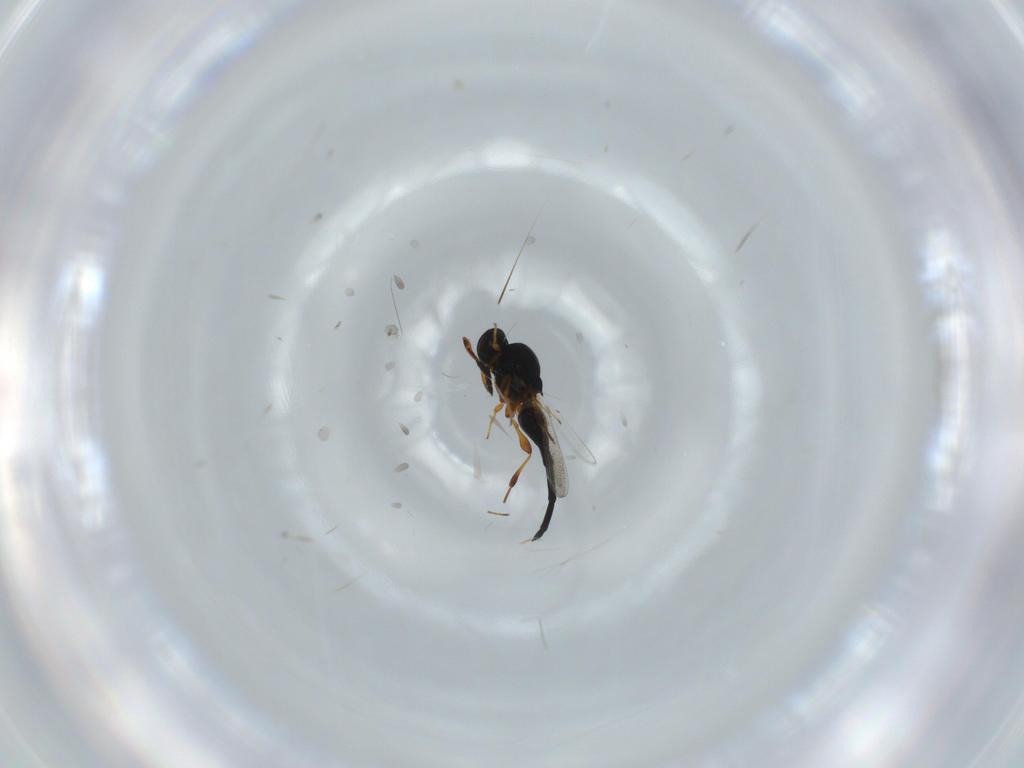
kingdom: Animalia
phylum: Arthropoda
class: Insecta
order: Hymenoptera
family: Platygastridae
